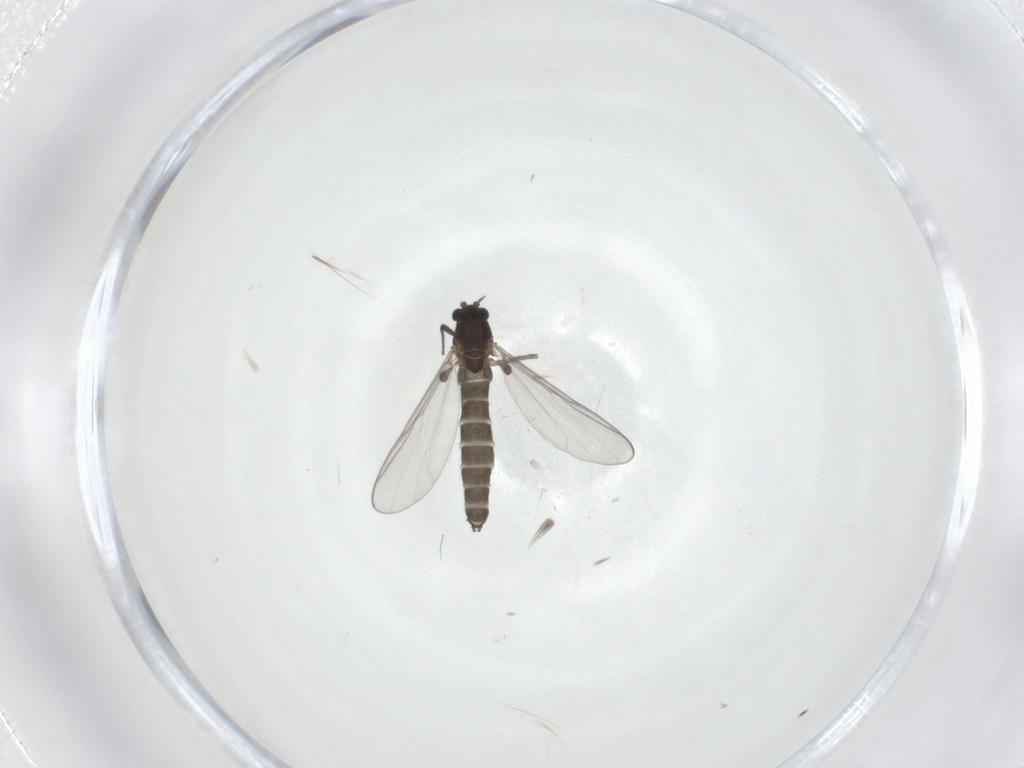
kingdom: Animalia
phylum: Arthropoda
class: Insecta
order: Diptera
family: Chironomidae
